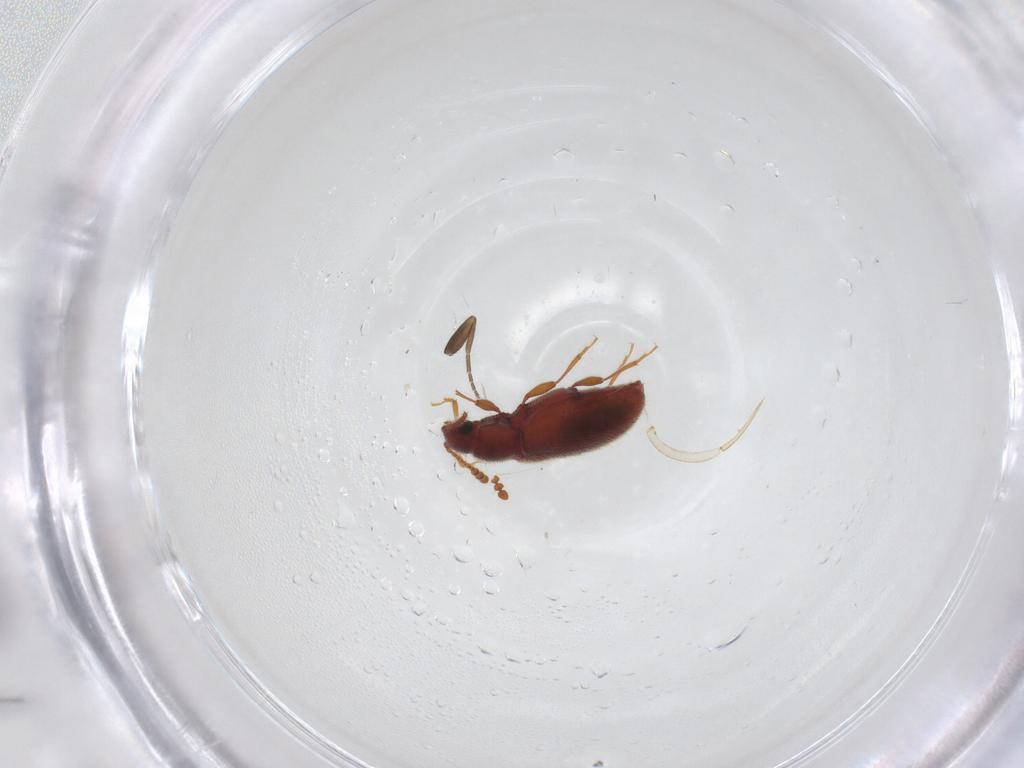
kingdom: Animalia
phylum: Arthropoda
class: Insecta
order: Coleoptera
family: Cryptophagidae
